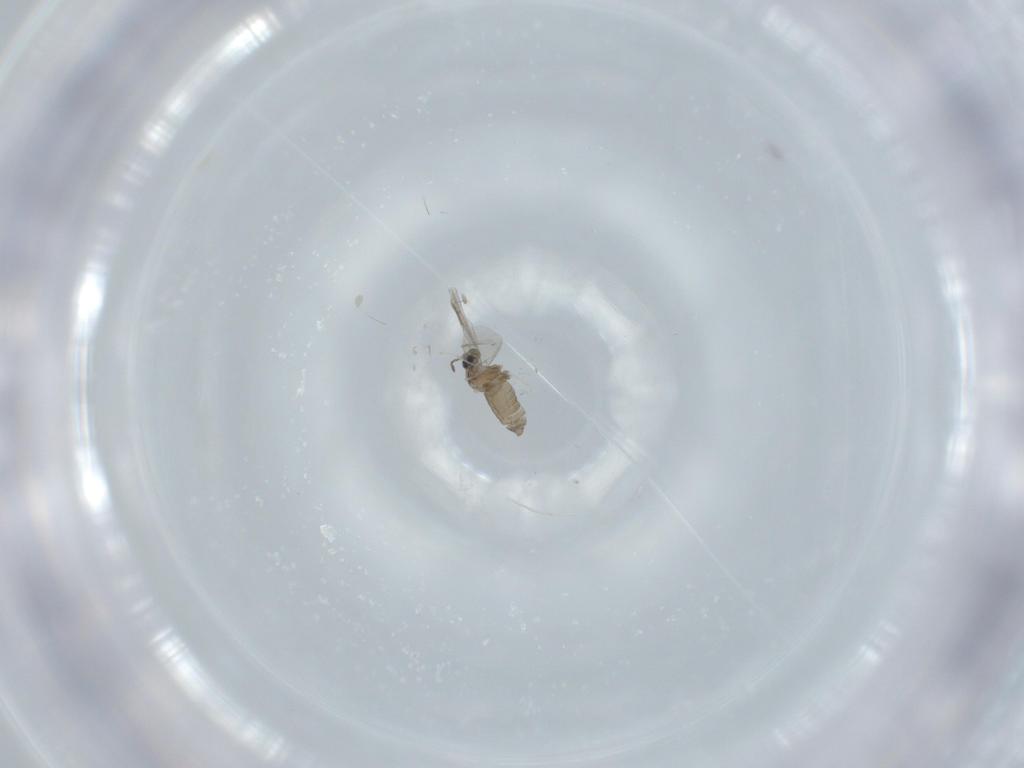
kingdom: Animalia
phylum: Arthropoda
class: Insecta
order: Diptera
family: Cecidomyiidae
